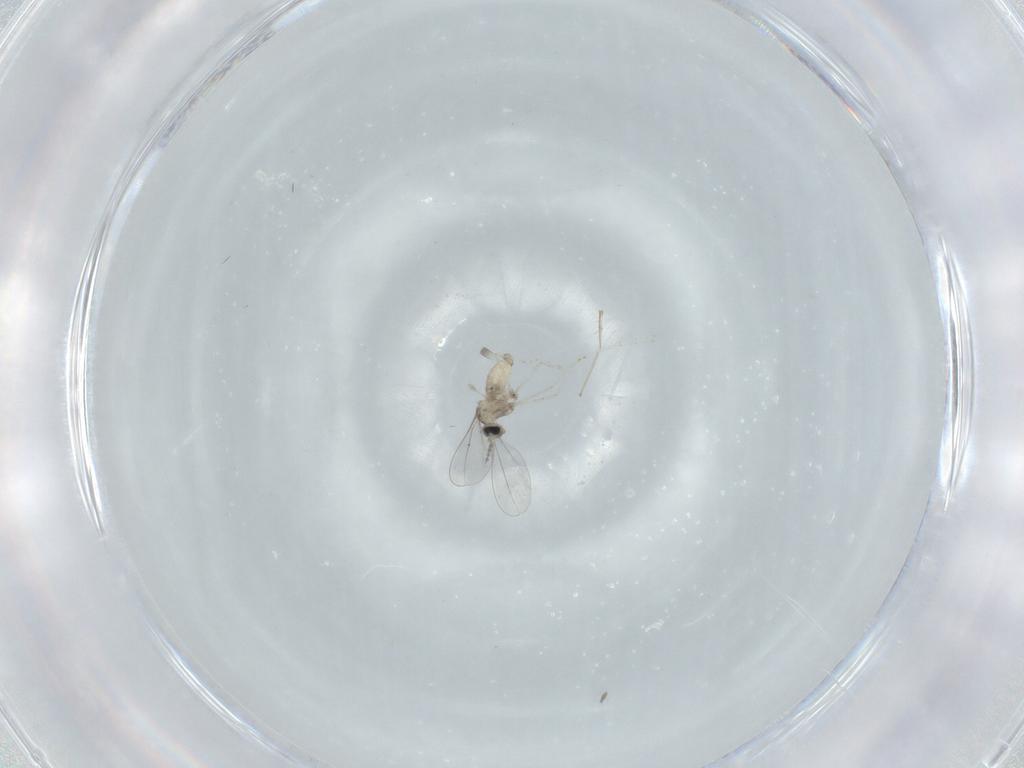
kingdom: Animalia
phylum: Arthropoda
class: Insecta
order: Diptera
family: Cecidomyiidae
